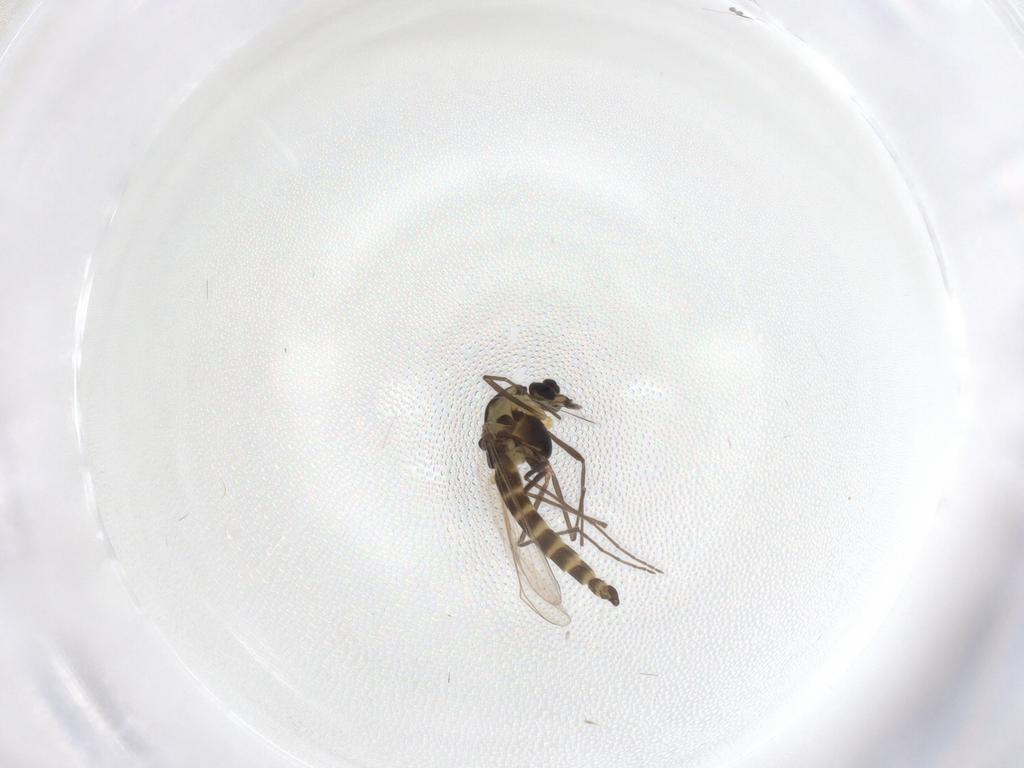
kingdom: Animalia
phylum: Arthropoda
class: Insecta
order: Diptera
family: Chironomidae
